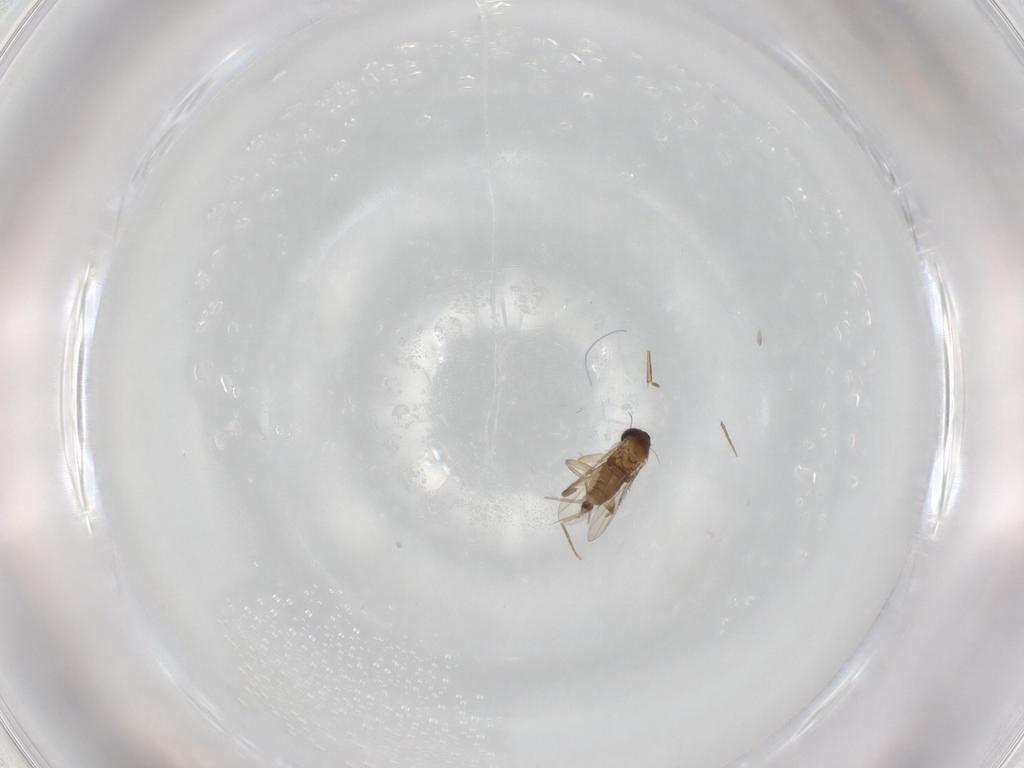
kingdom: Animalia
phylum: Arthropoda
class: Insecta
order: Diptera
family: Phoridae
